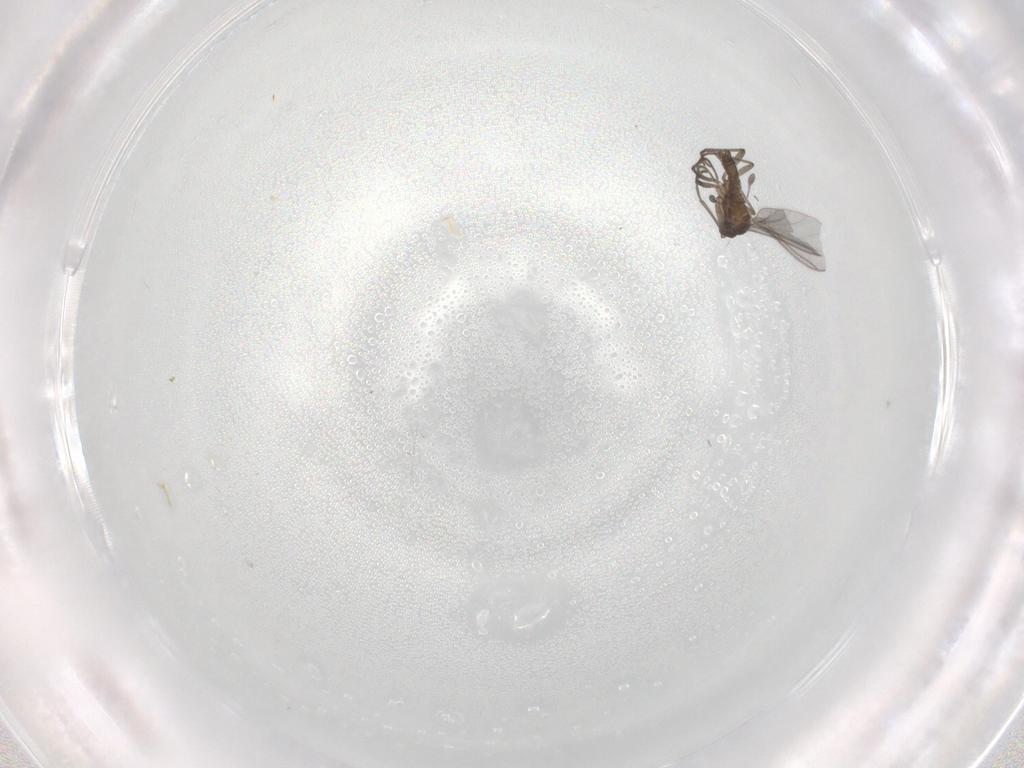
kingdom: Animalia
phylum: Arthropoda
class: Insecta
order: Diptera
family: Sciaridae
